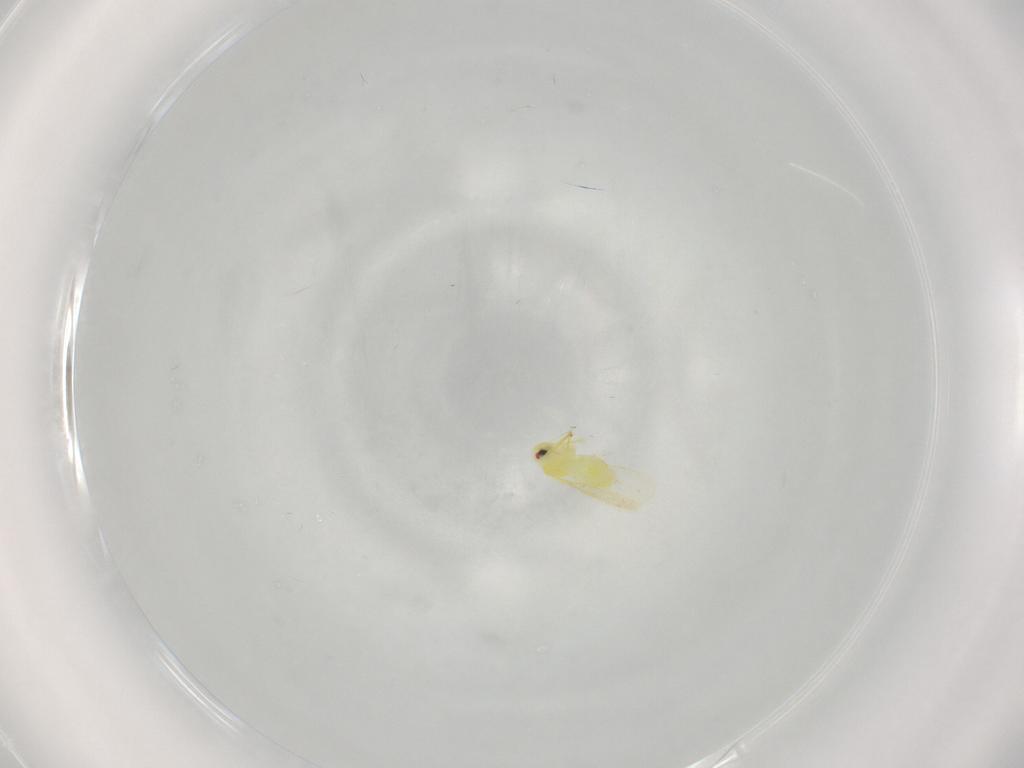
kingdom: Animalia
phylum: Arthropoda
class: Insecta
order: Hemiptera
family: Aleyrodidae
